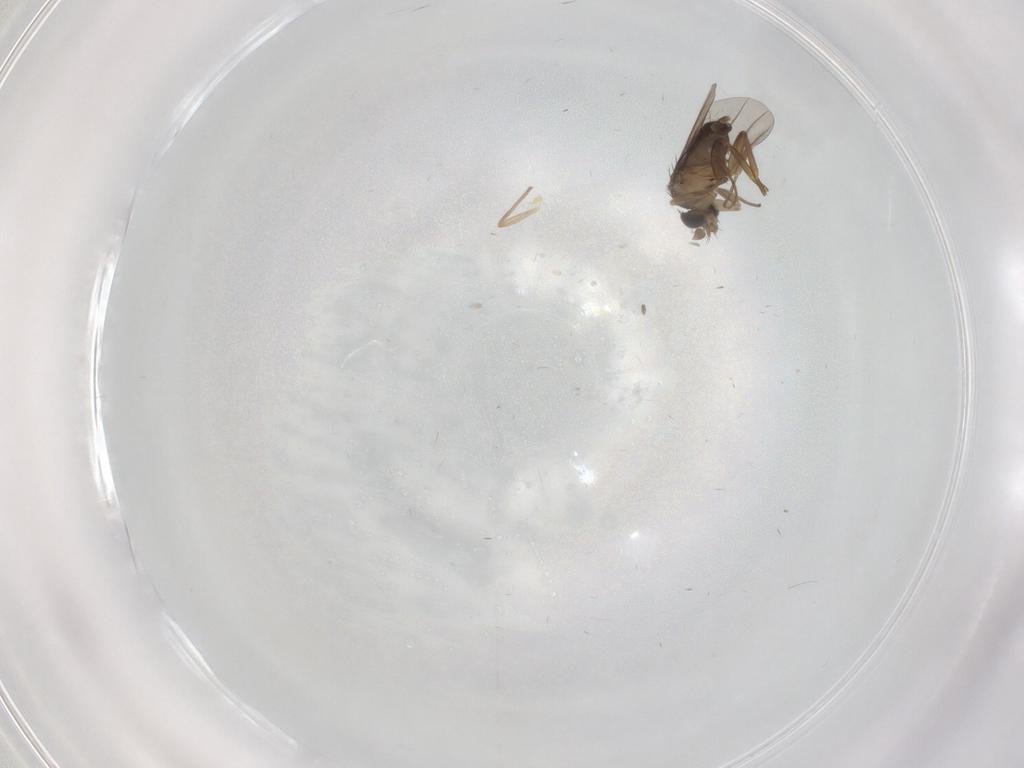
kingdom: Animalia
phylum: Arthropoda
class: Insecta
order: Diptera
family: Phoridae
